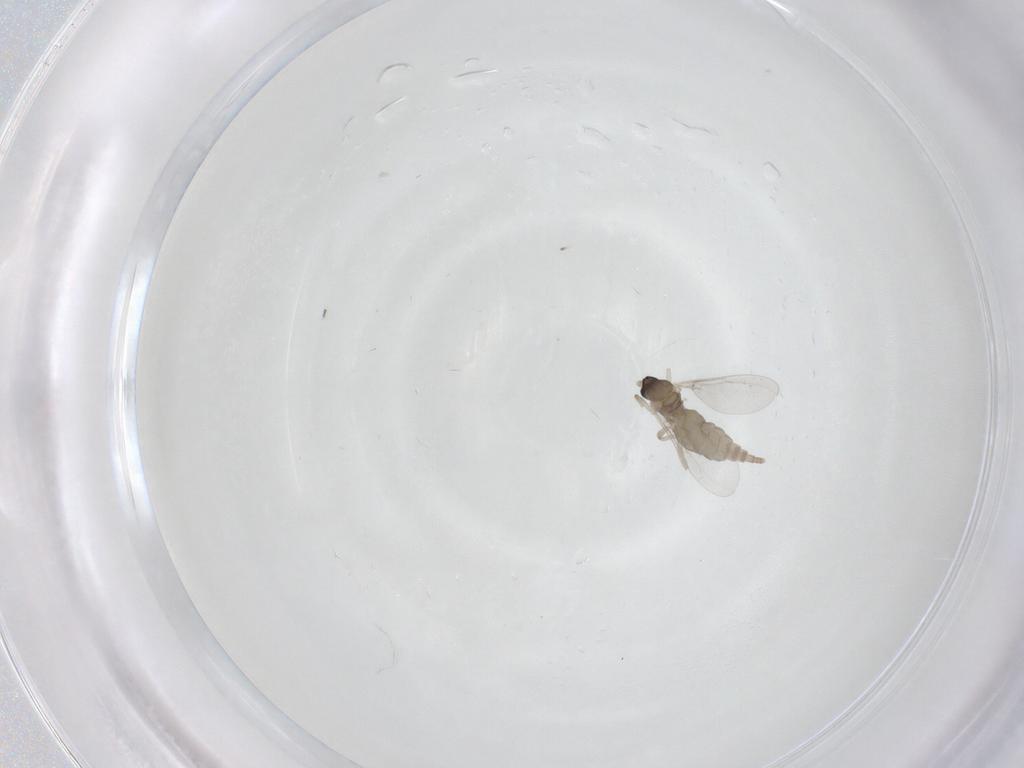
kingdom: Animalia
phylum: Arthropoda
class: Insecta
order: Diptera
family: Cecidomyiidae
